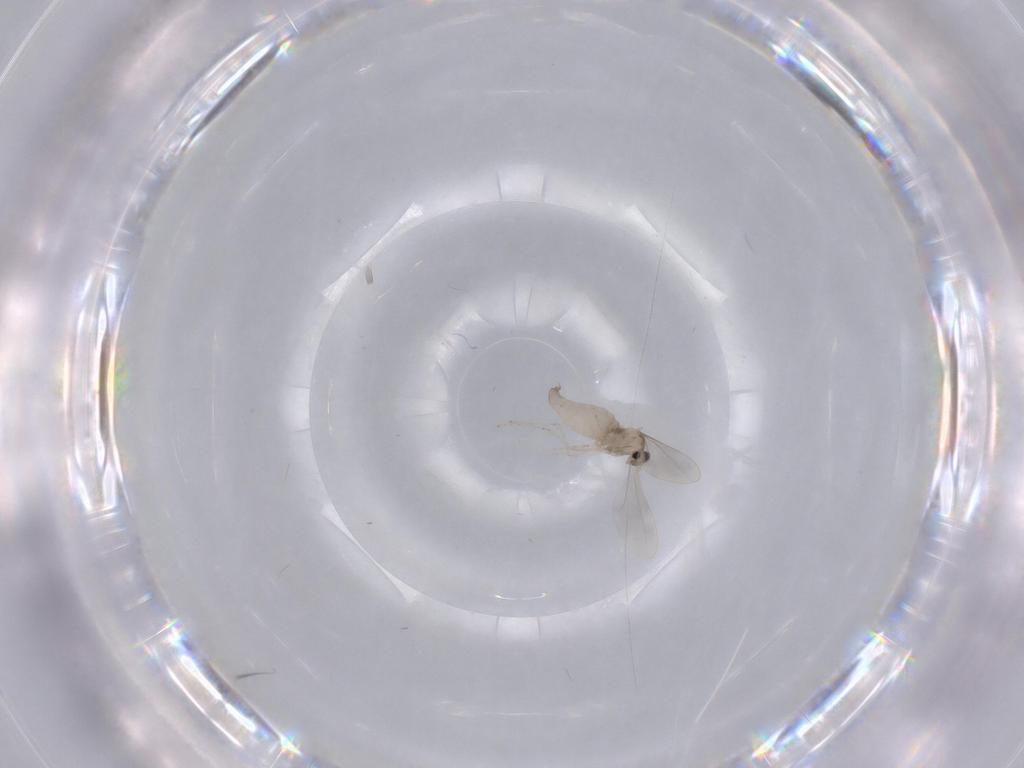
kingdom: Animalia
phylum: Arthropoda
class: Insecta
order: Diptera
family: Cecidomyiidae
